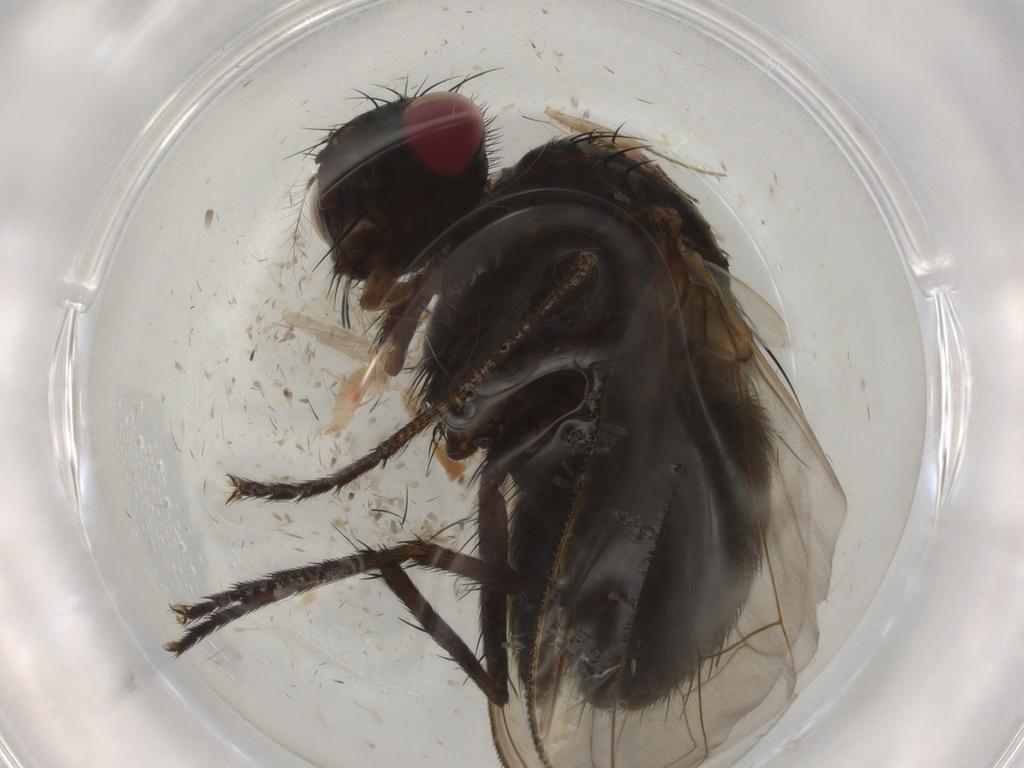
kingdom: Animalia
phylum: Arthropoda
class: Insecta
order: Diptera
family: Calliphoridae
